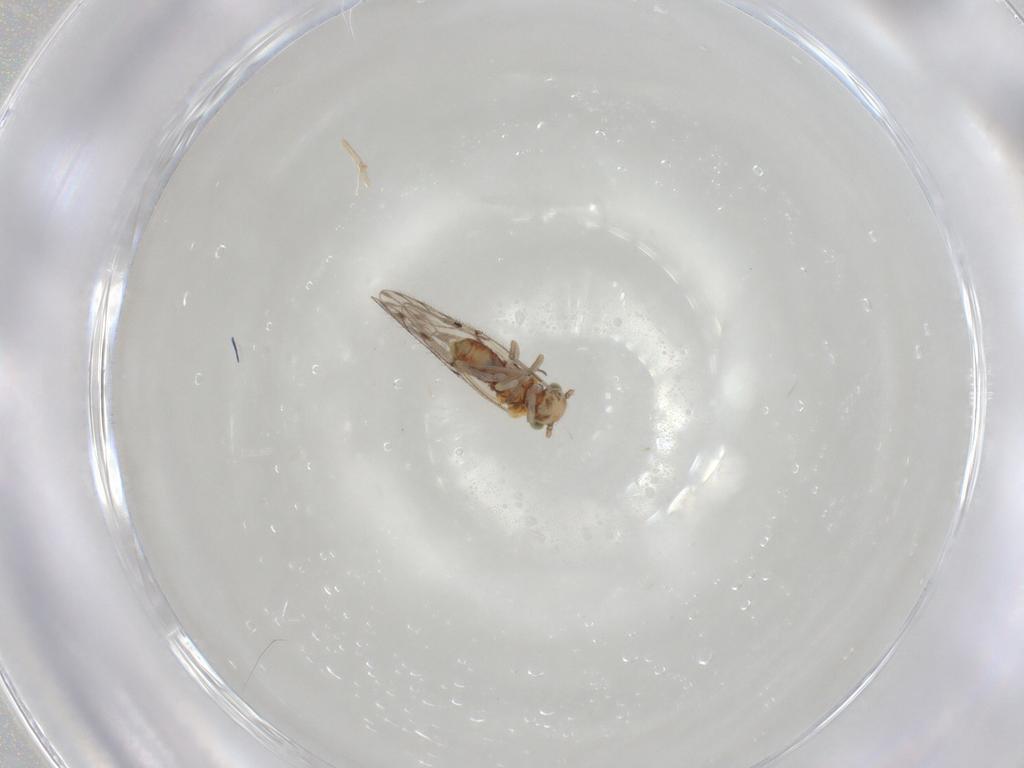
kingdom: Animalia
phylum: Arthropoda
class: Insecta
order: Psocodea
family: Trichopsocidae
